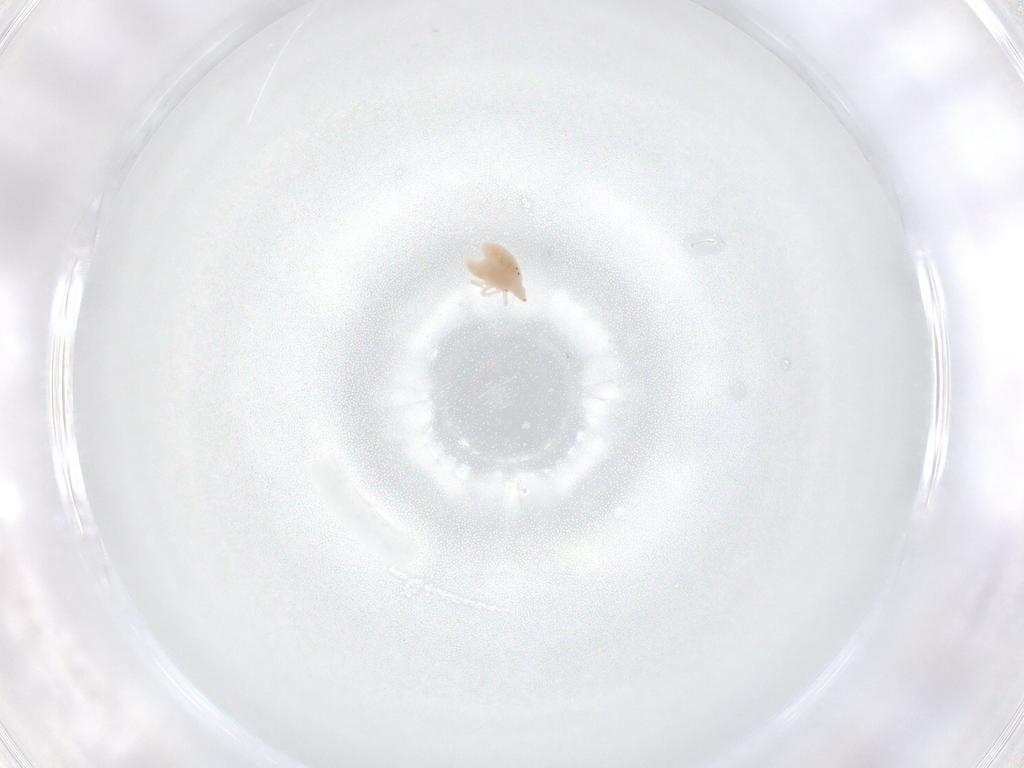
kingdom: Animalia
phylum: Arthropoda
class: Arachnida
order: Trombidiformes
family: Bdellidae
